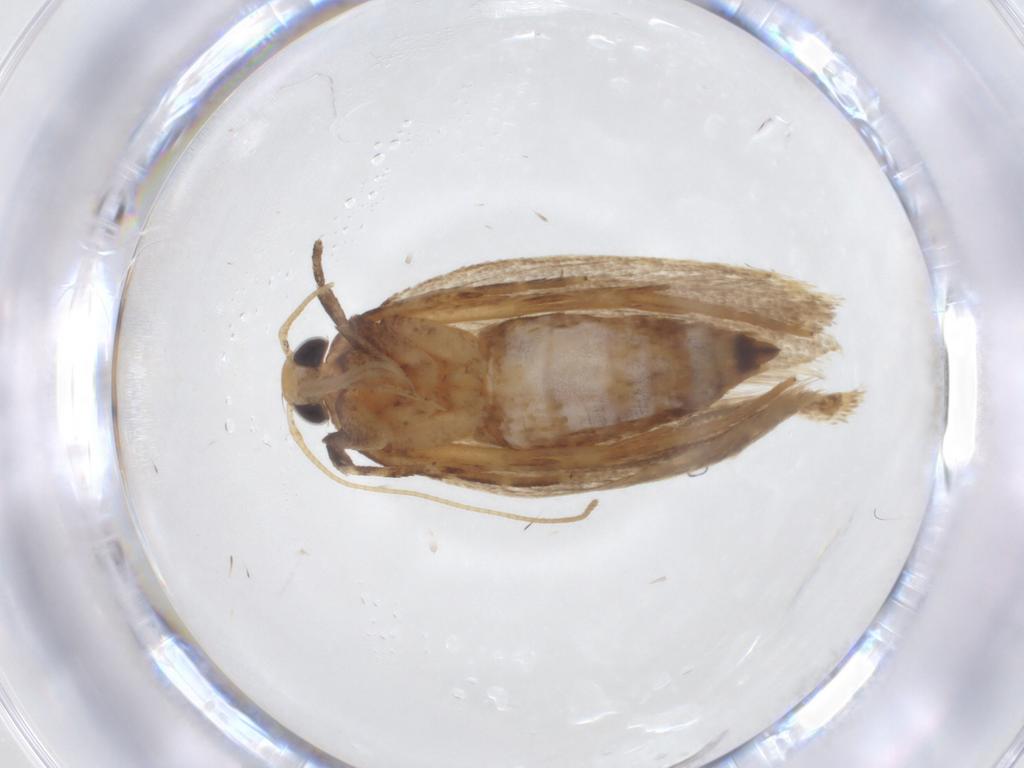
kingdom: Animalia
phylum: Arthropoda
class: Insecta
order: Lepidoptera
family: Oecophoridae
